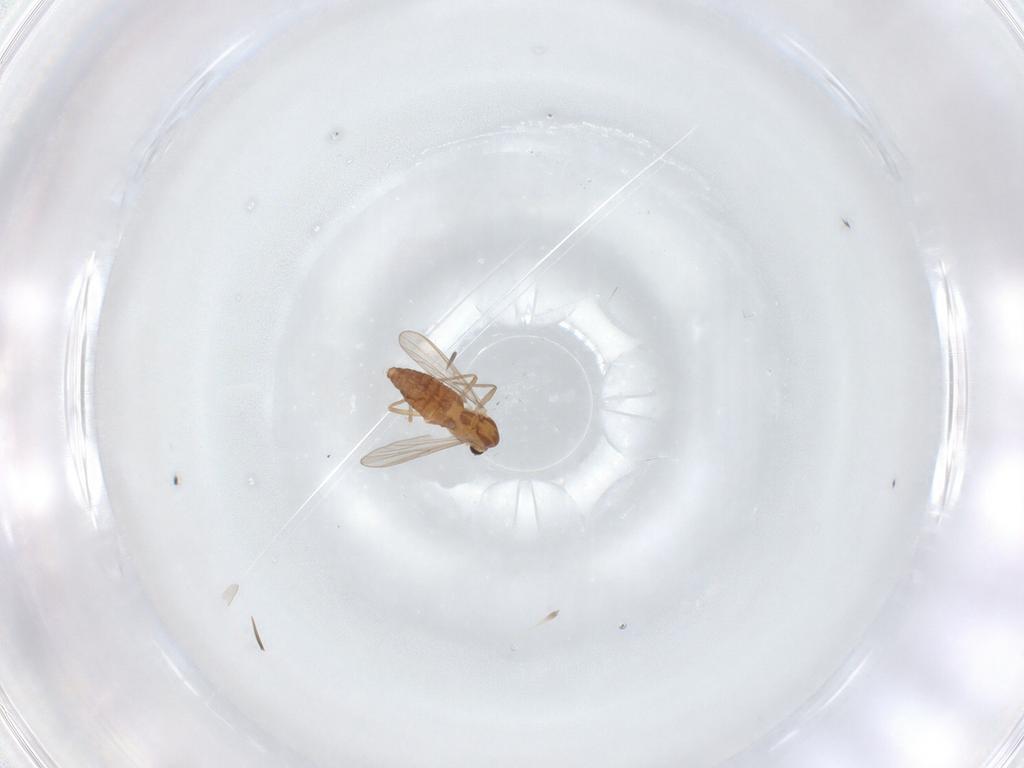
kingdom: Animalia
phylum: Arthropoda
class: Insecta
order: Diptera
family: Chironomidae
